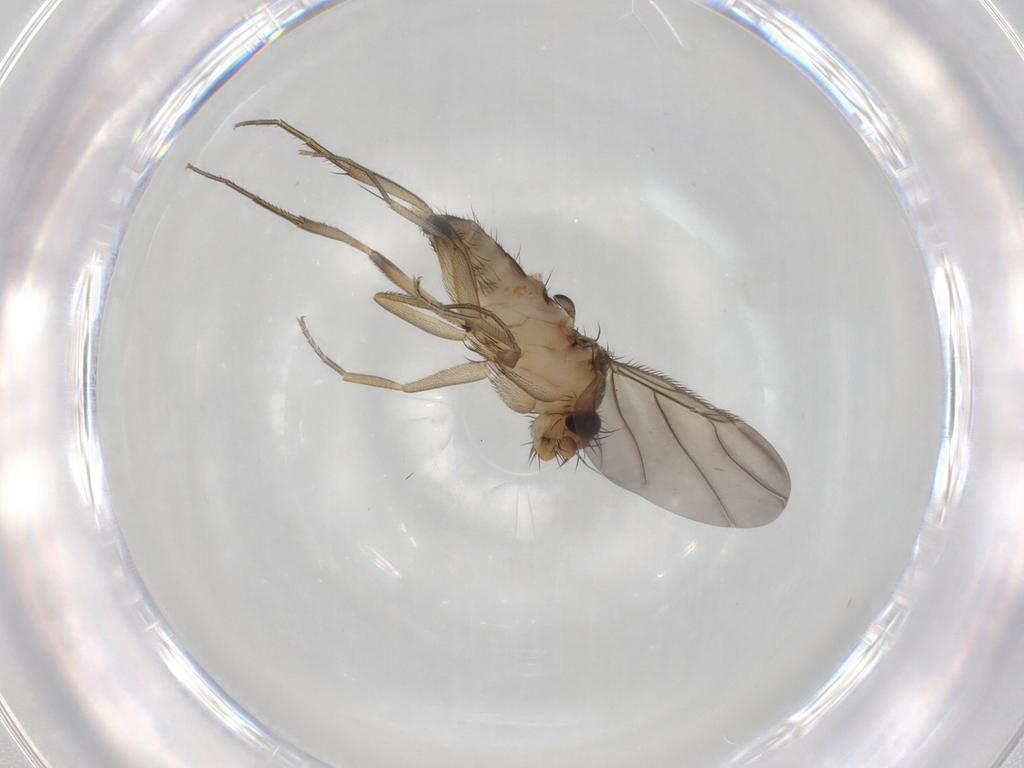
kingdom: Animalia
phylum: Arthropoda
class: Insecta
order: Diptera
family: Phoridae
